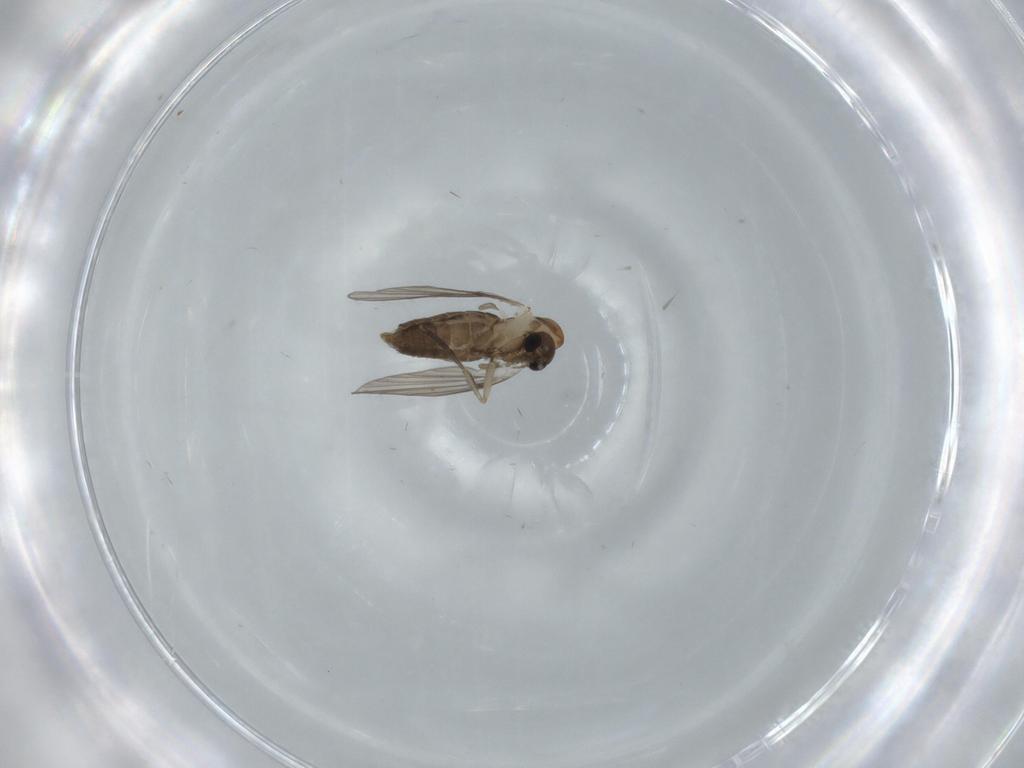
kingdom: Animalia
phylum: Arthropoda
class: Insecta
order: Diptera
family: Psychodidae
